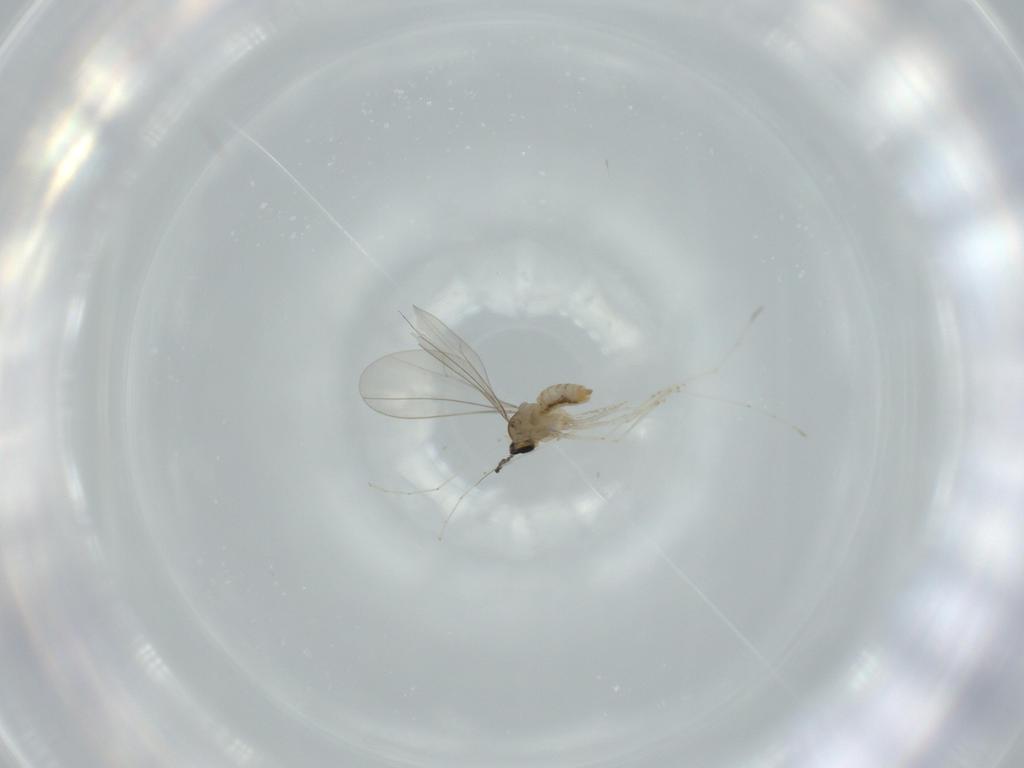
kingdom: Animalia
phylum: Arthropoda
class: Insecta
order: Diptera
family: Cecidomyiidae
